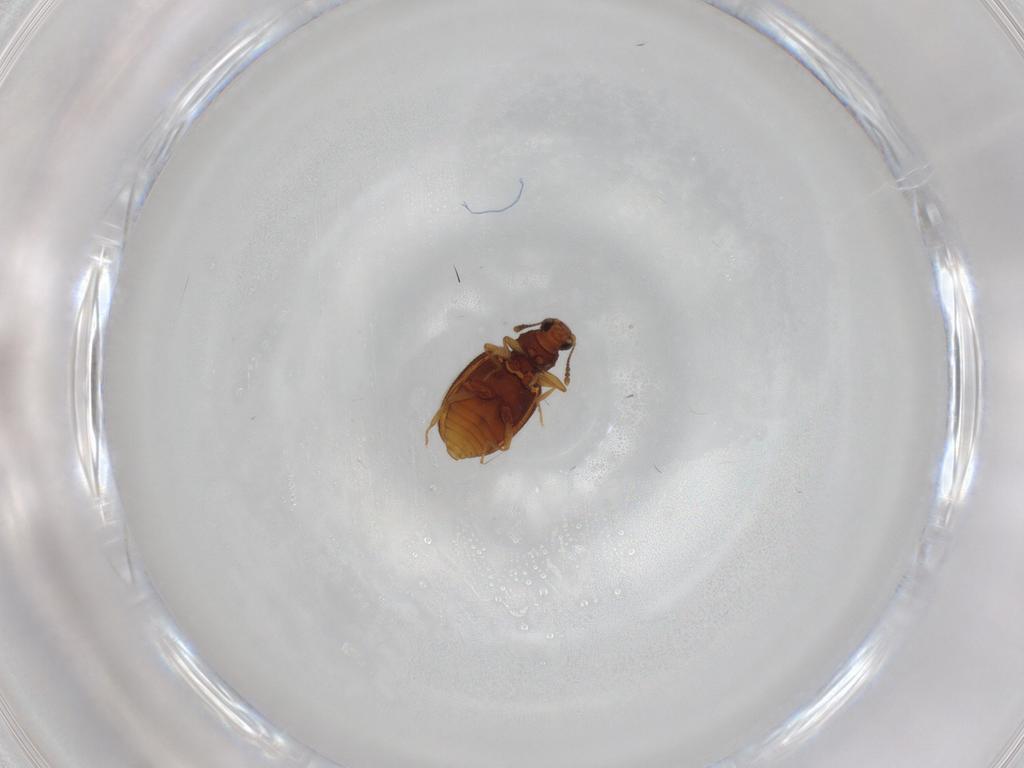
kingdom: Animalia
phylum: Arthropoda
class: Insecta
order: Coleoptera
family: Latridiidae
